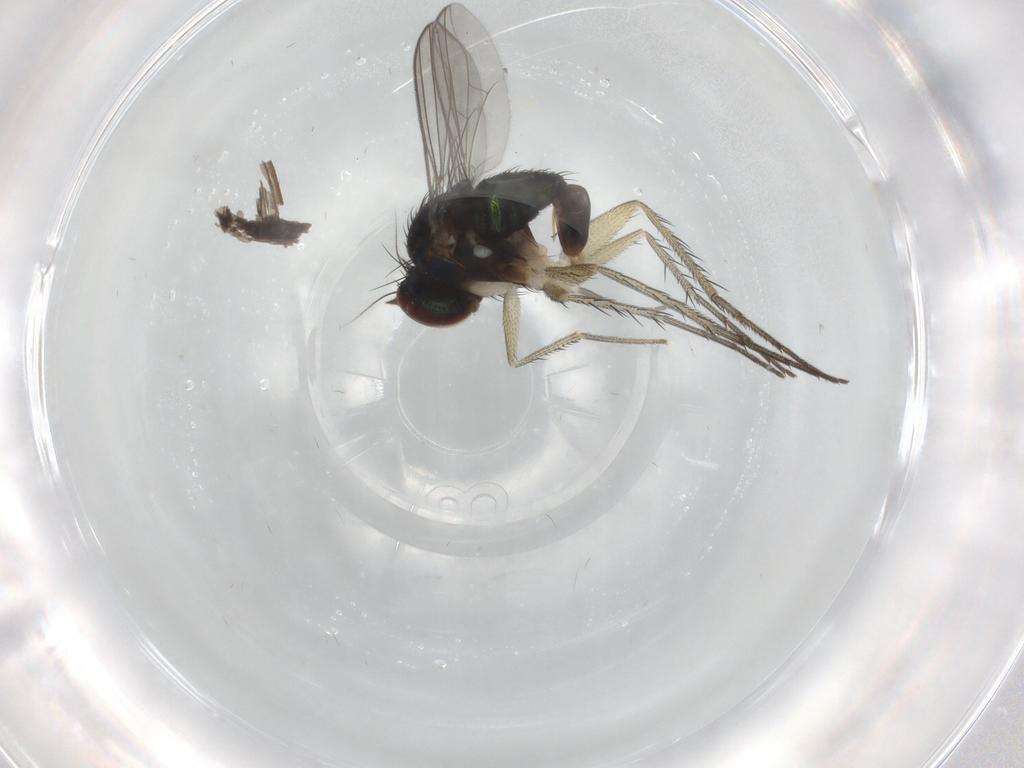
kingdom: Animalia
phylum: Arthropoda
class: Insecta
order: Diptera
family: Dolichopodidae
